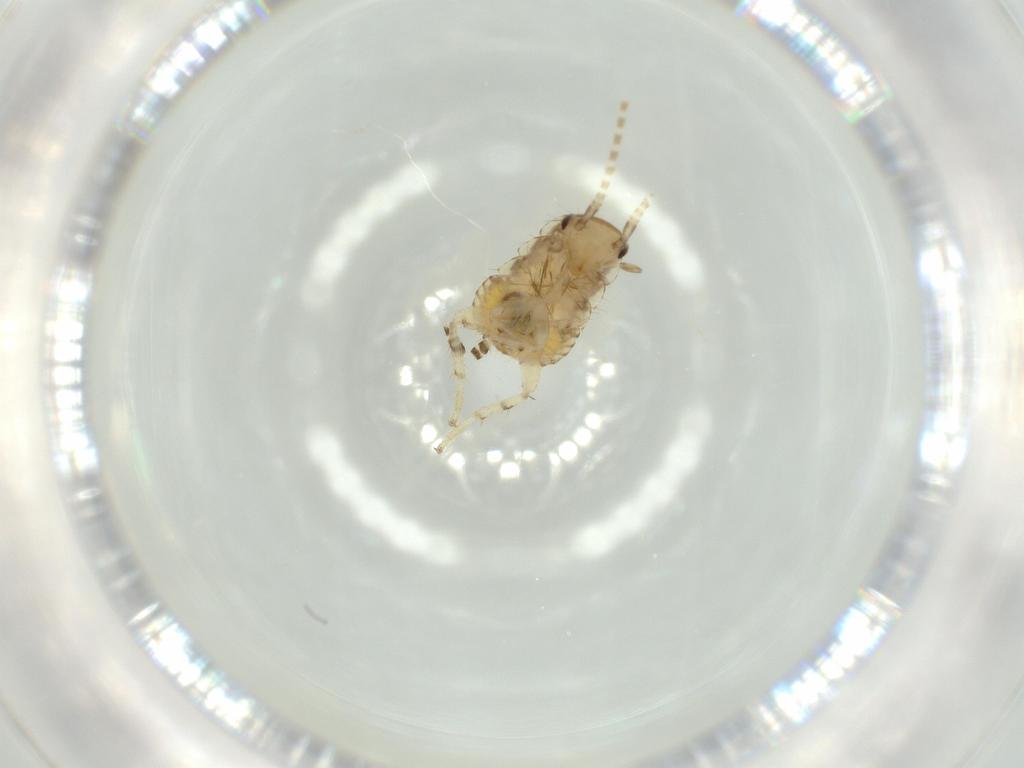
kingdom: Animalia
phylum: Arthropoda
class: Insecta
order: Blattodea
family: Ectobiidae
